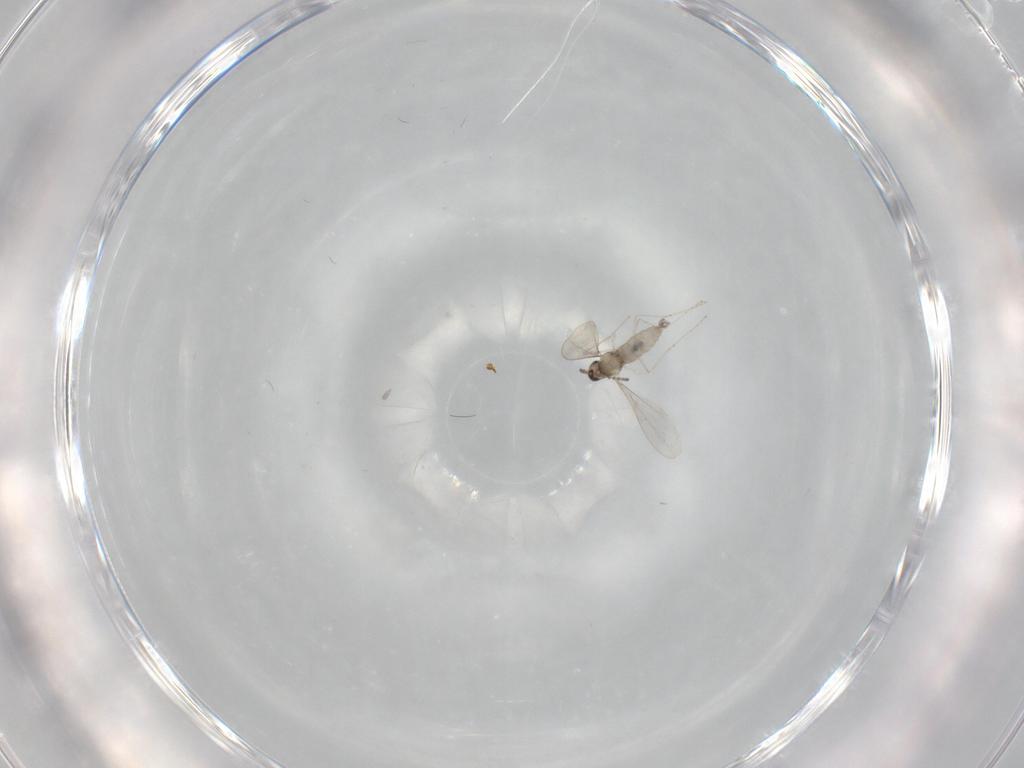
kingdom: Animalia
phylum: Arthropoda
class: Insecta
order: Diptera
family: Cecidomyiidae
